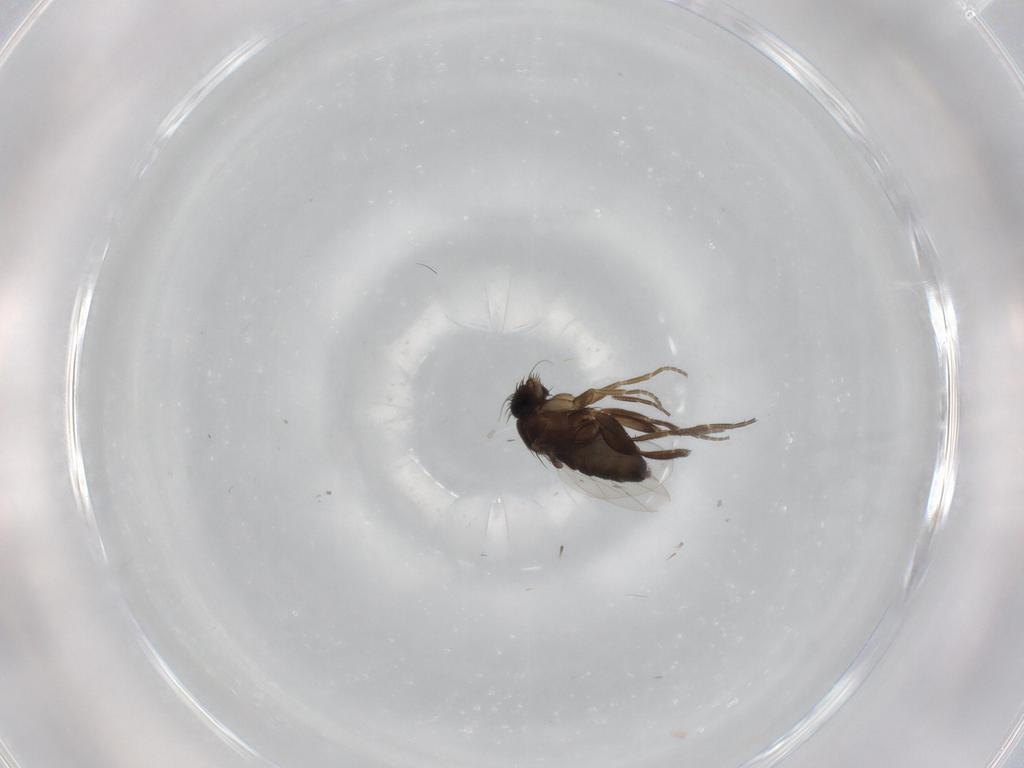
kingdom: Animalia
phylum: Arthropoda
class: Insecta
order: Diptera
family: Phoridae
